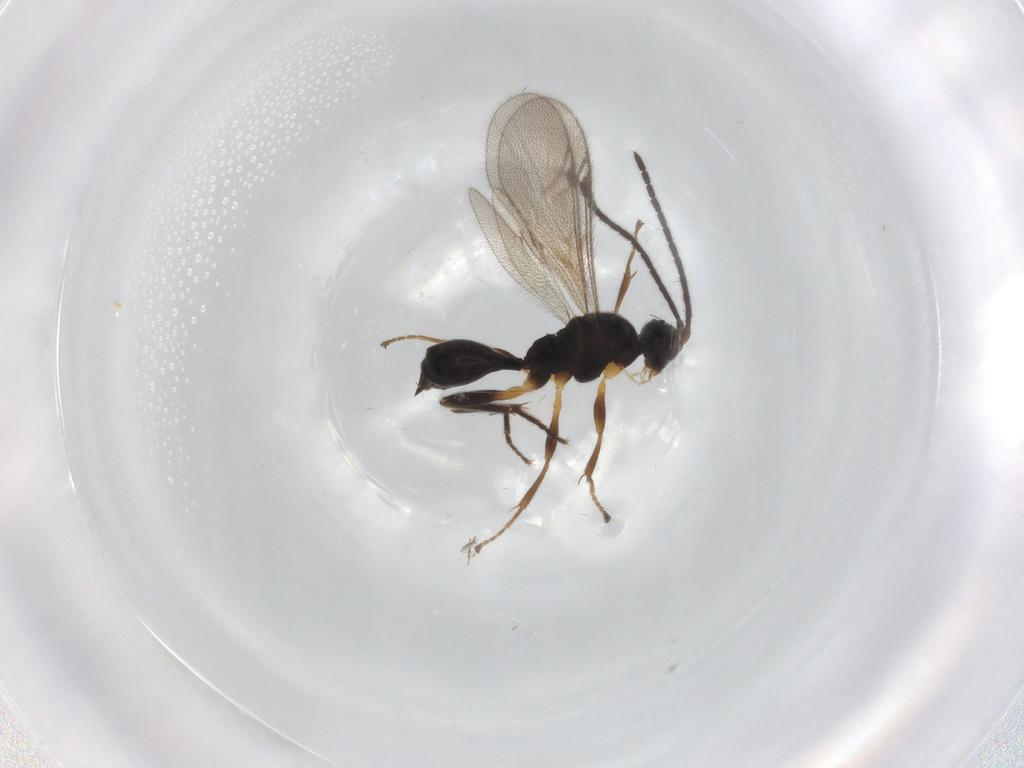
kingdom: Animalia
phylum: Arthropoda
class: Insecta
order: Hymenoptera
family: Proctotrupidae
